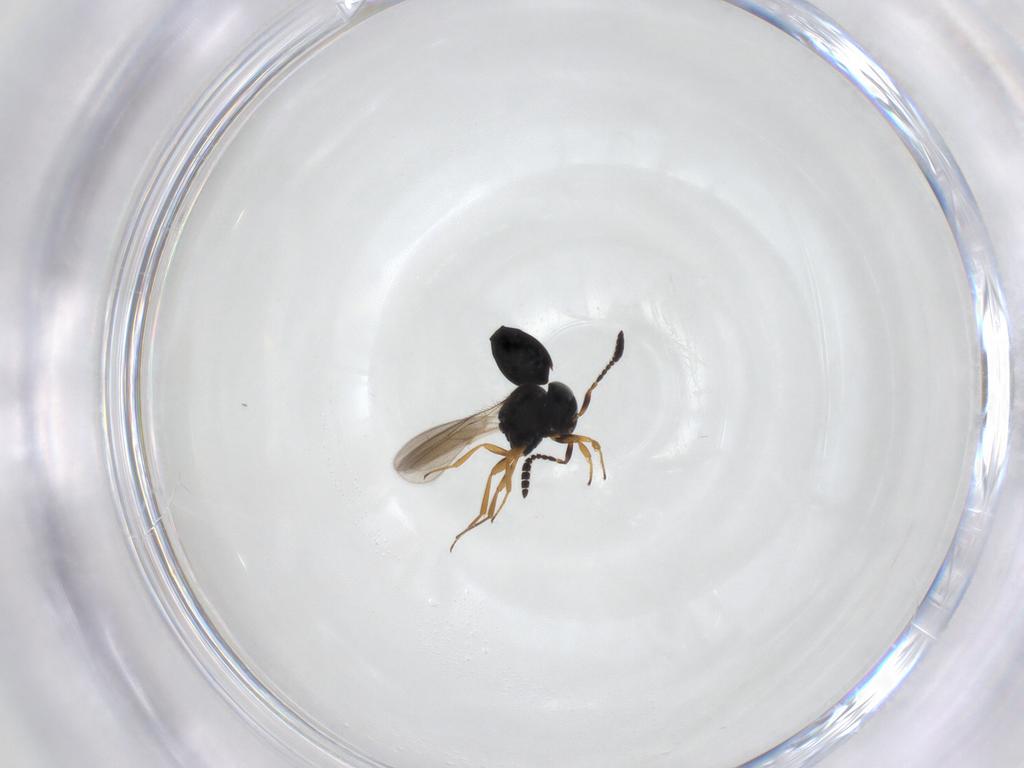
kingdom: Animalia
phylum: Arthropoda
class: Insecta
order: Hymenoptera
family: Scelionidae
